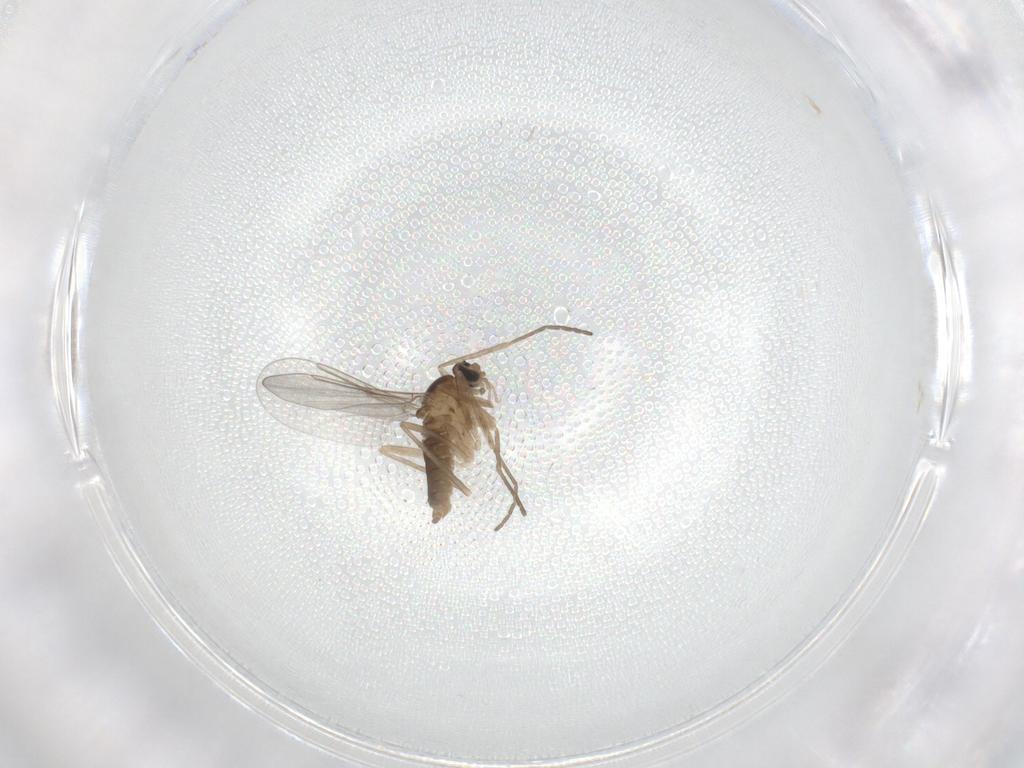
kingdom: Animalia
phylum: Arthropoda
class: Insecta
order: Diptera
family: Cecidomyiidae
